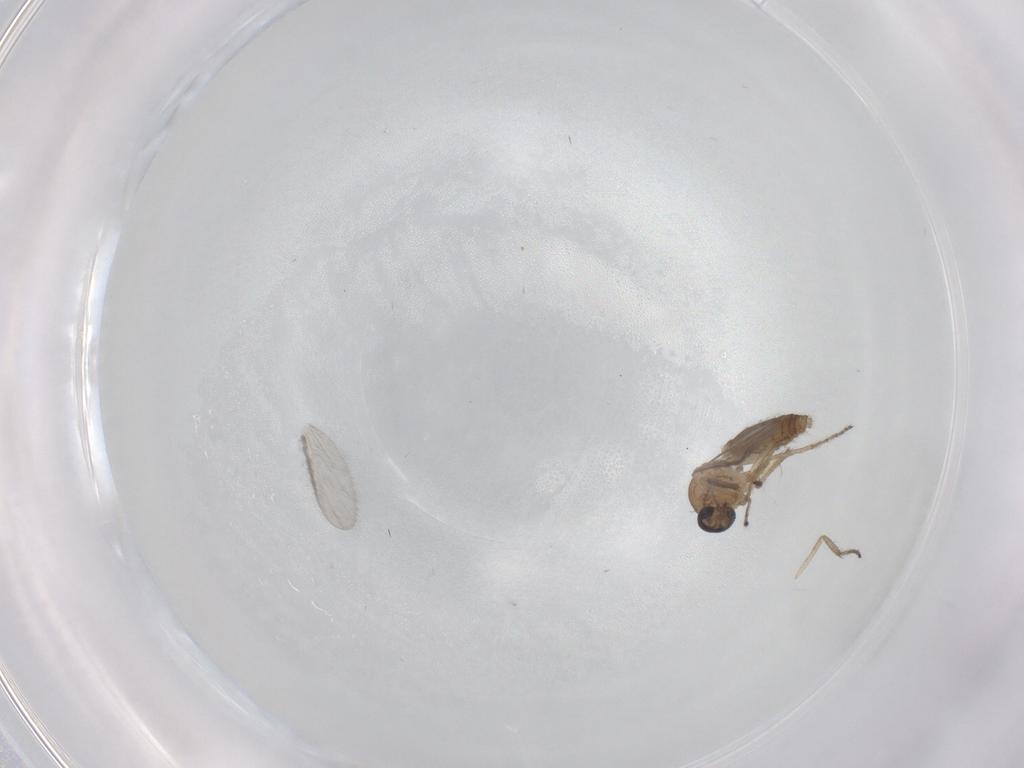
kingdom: Animalia
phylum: Arthropoda
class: Insecta
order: Diptera
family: Ceratopogonidae
